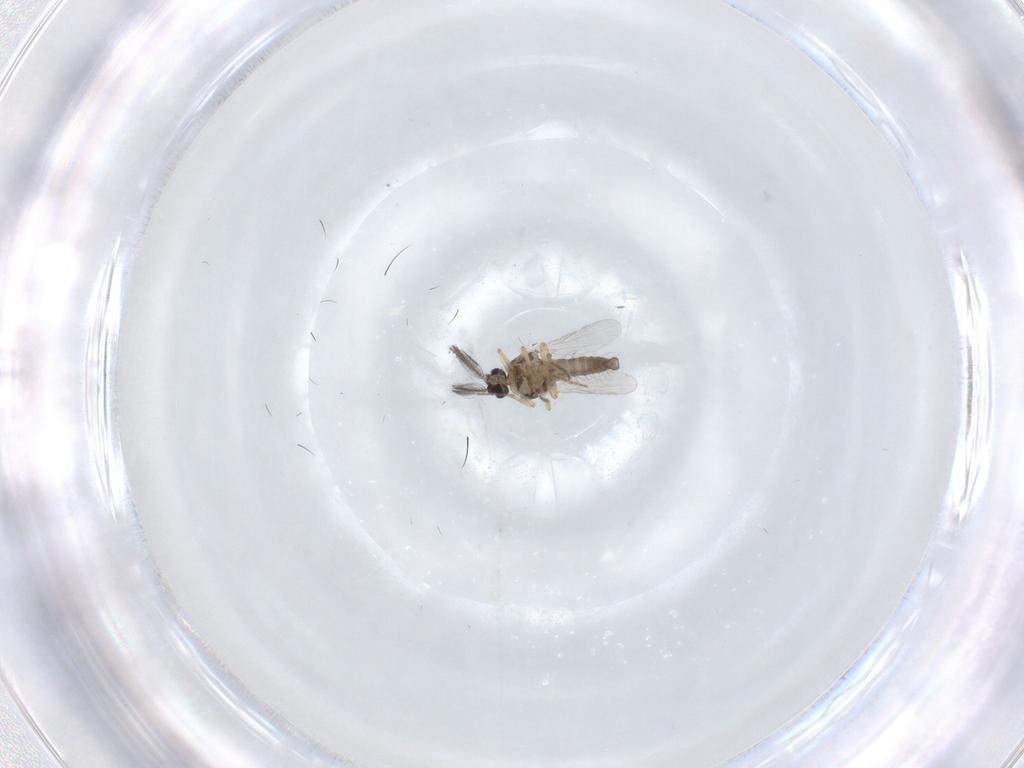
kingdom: Animalia
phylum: Arthropoda
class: Insecta
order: Diptera
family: Ceratopogonidae
